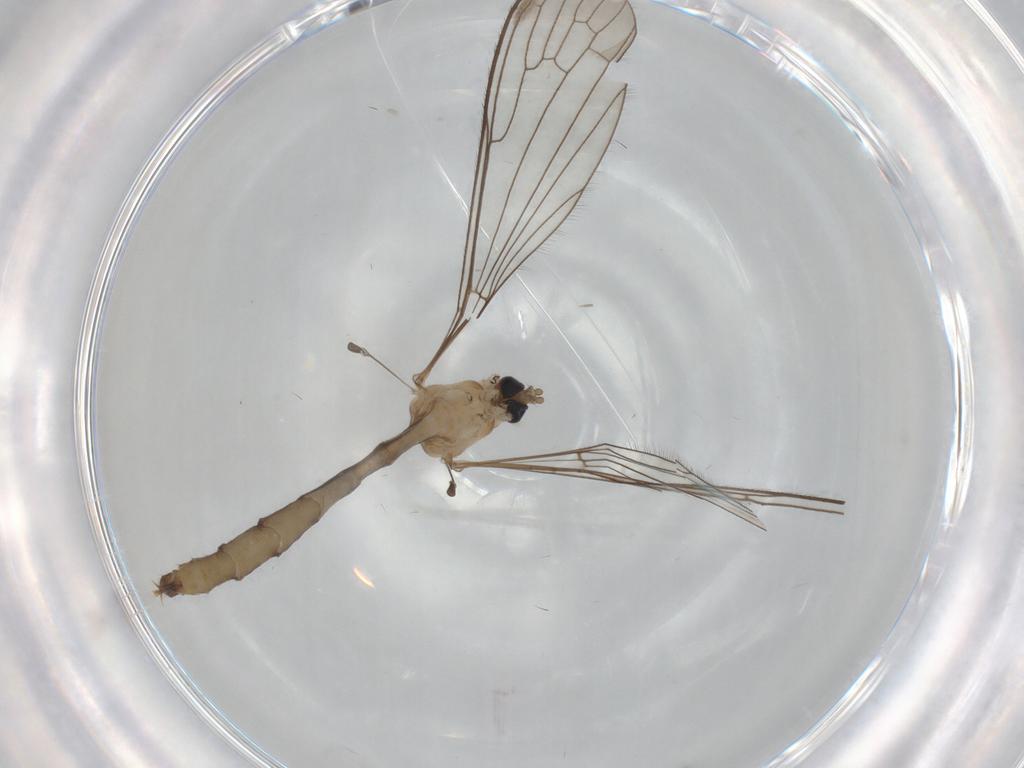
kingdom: Animalia
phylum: Arthropoda
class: Insecta
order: Diptera
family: Limoniidae
